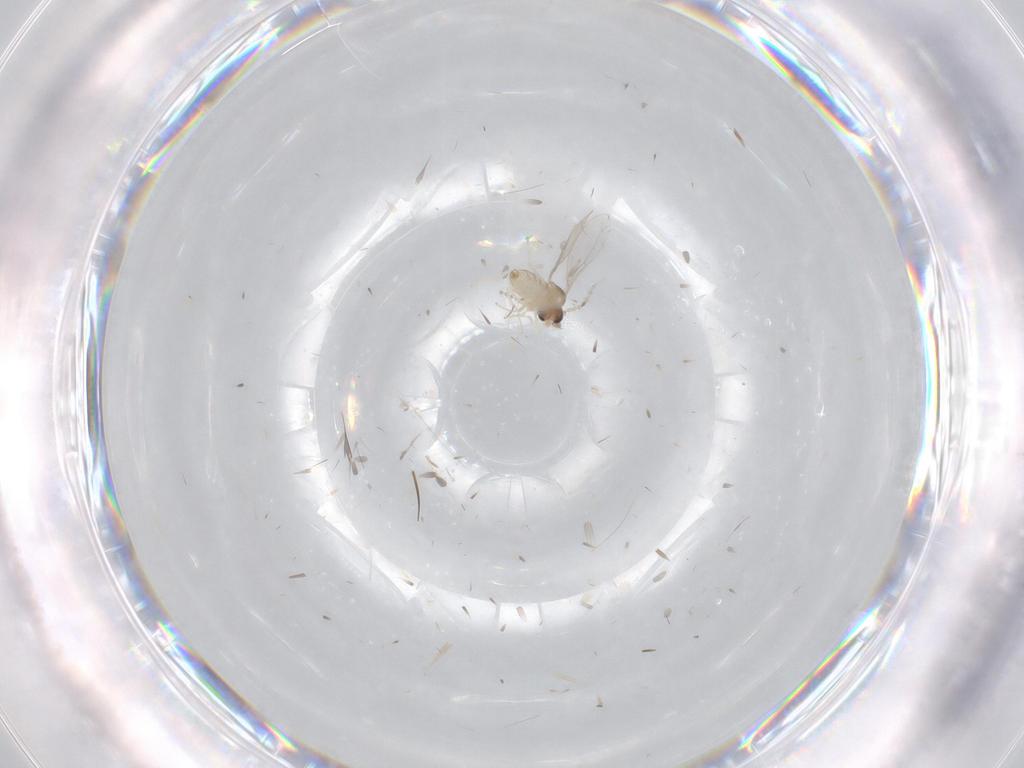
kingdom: Animalia
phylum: Arthropoda
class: Insecta
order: Diptera
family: Cecidomyiidae
